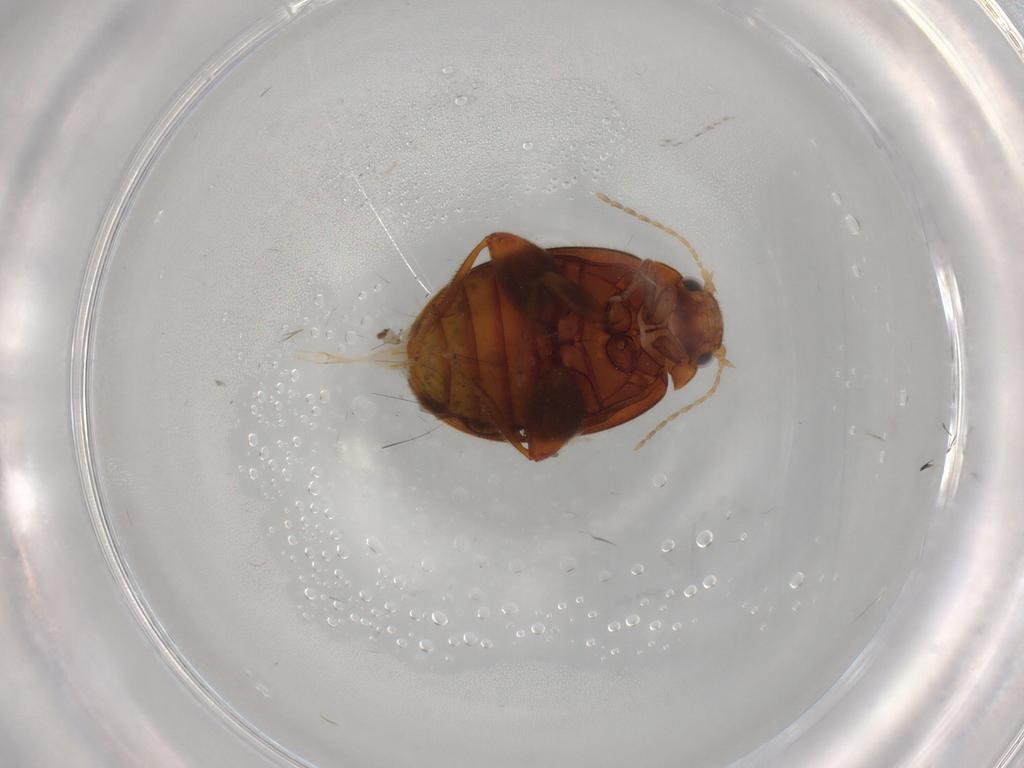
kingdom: Animalia
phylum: Arthropoda
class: Insecta
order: Coleoptera
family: Scirtidae
